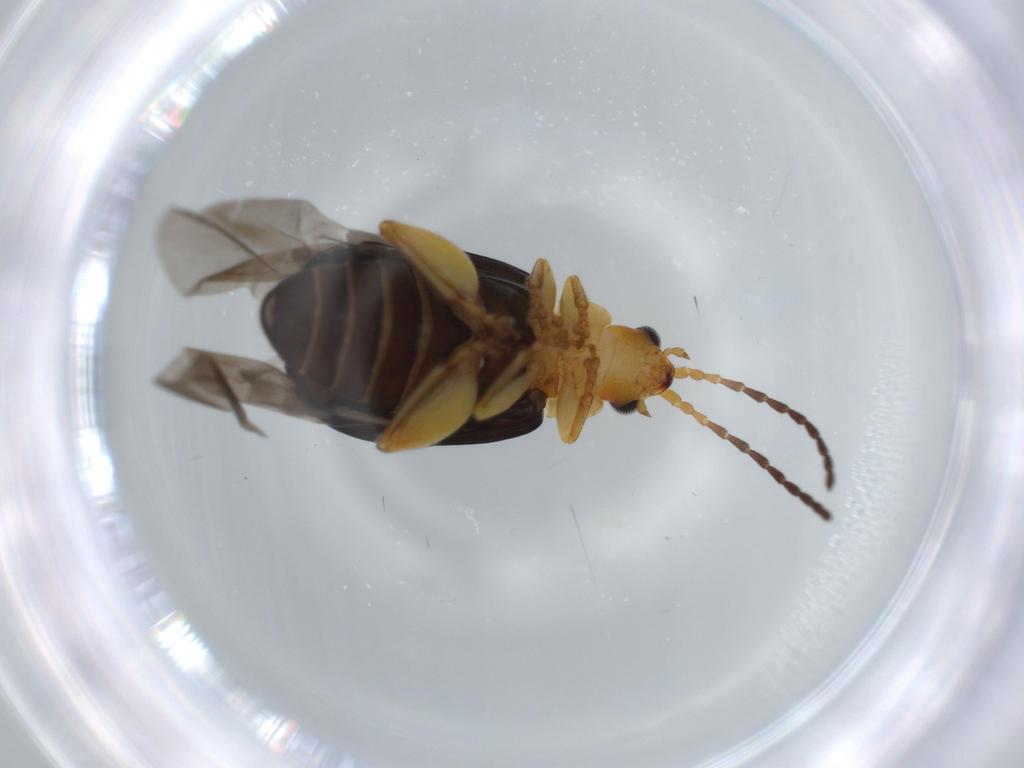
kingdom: Animalia
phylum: Arthropoda
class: Insecta
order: Coleoptera
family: Chrysomelidae
